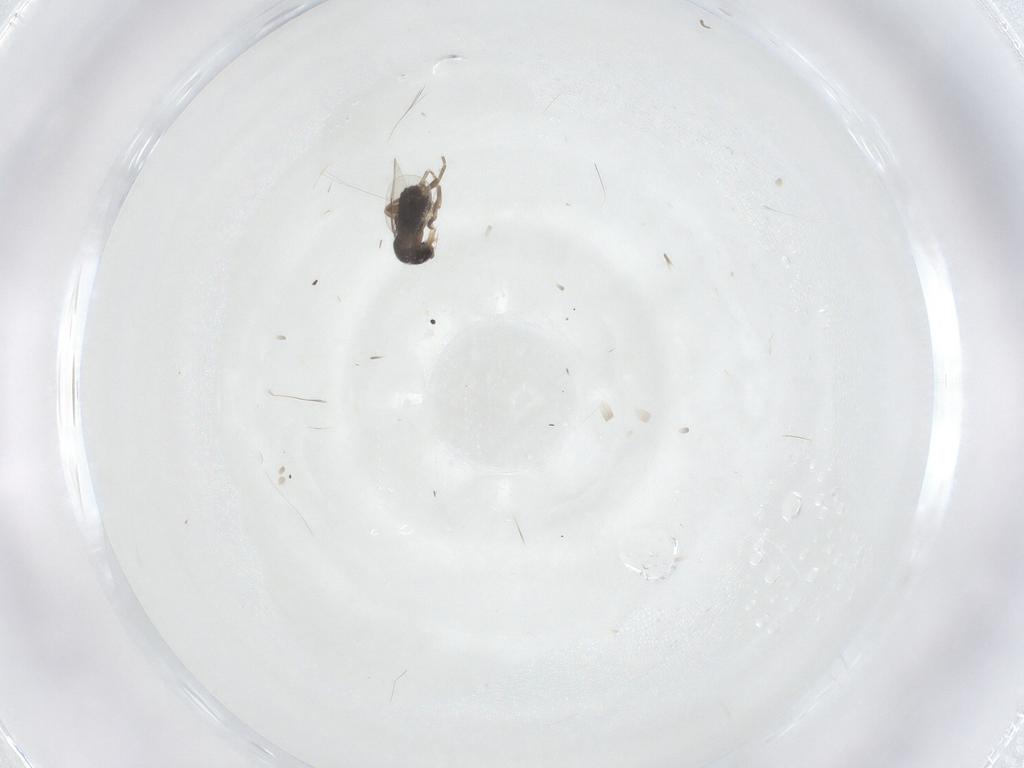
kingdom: Animalia
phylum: Arthropoda
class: Insecta
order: Diptera
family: Phoridae
